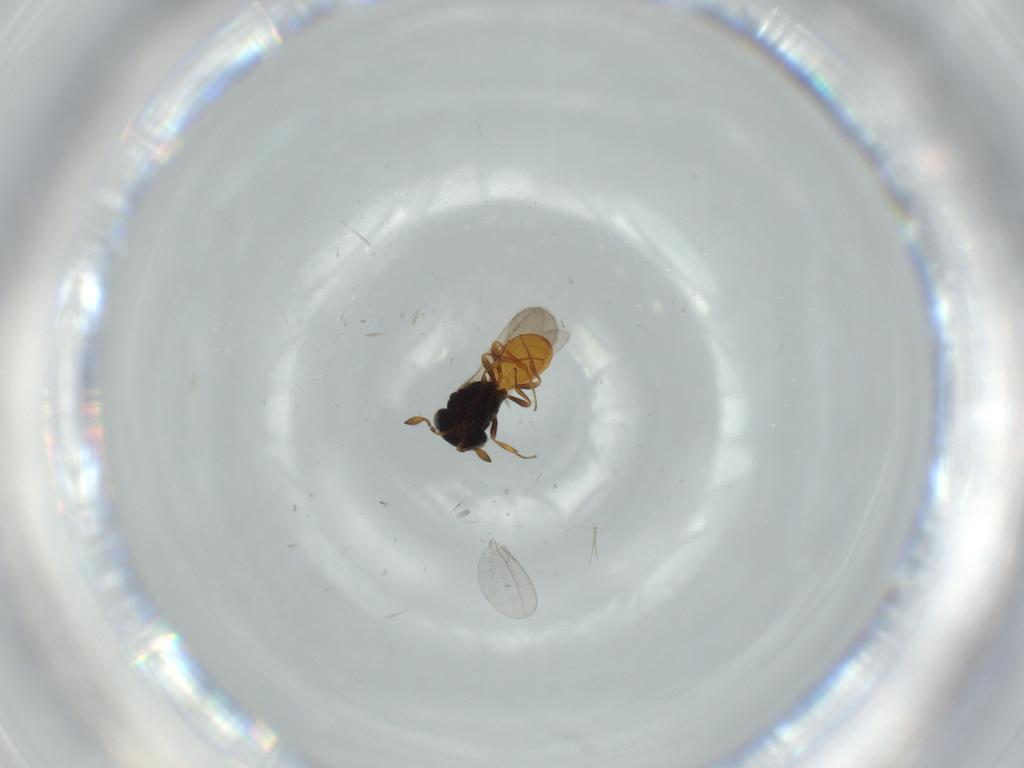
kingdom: Animalia
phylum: Arthropoda
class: Insecta
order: Hymenoptera
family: Scelionidae
